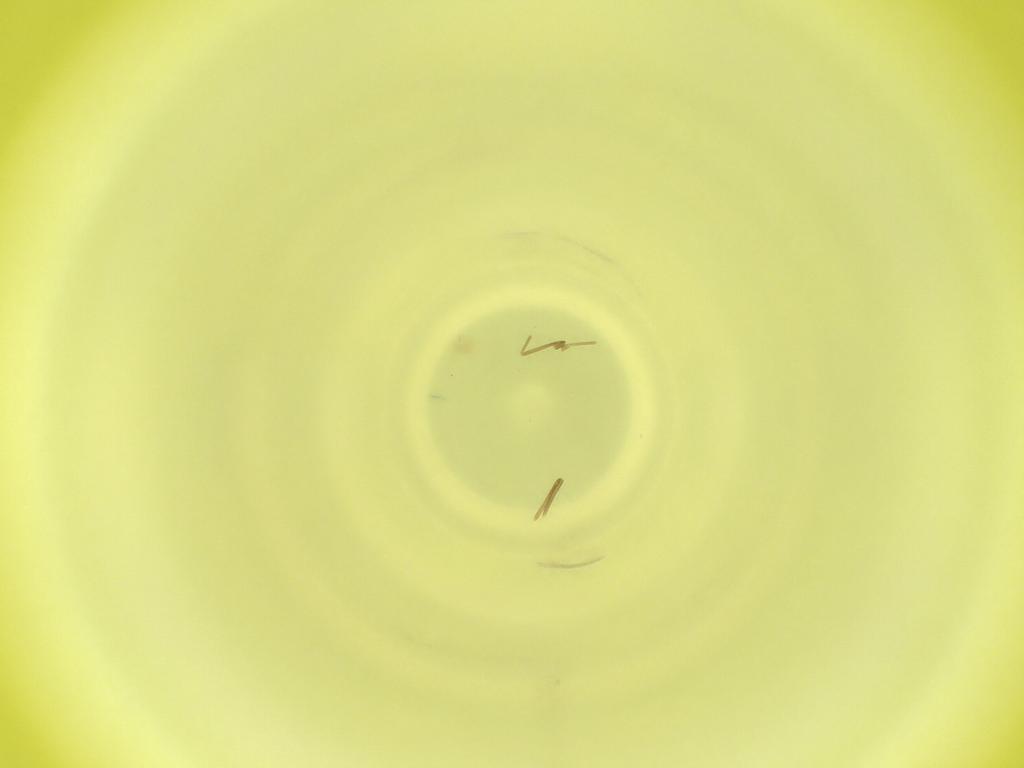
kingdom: Animalia
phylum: Arthropoda
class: Insecta
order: Diptera
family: Cecidomyiidae
